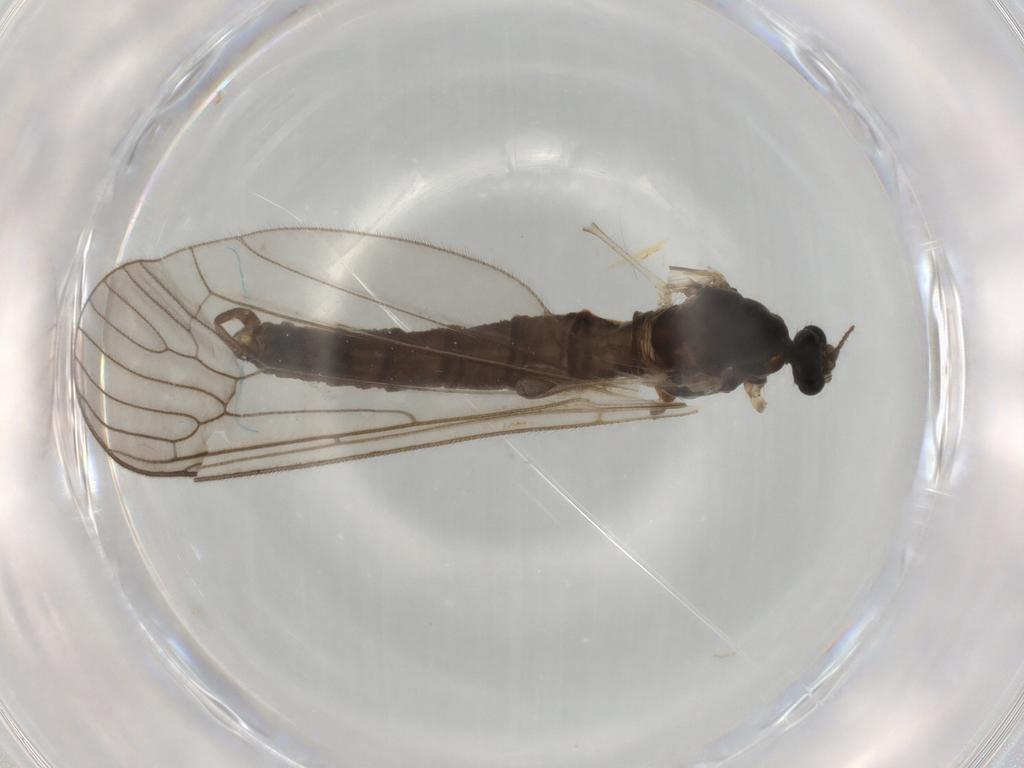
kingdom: Animalia
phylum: Arthropoda
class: Insecta
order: Diptera
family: Trichoceridae
